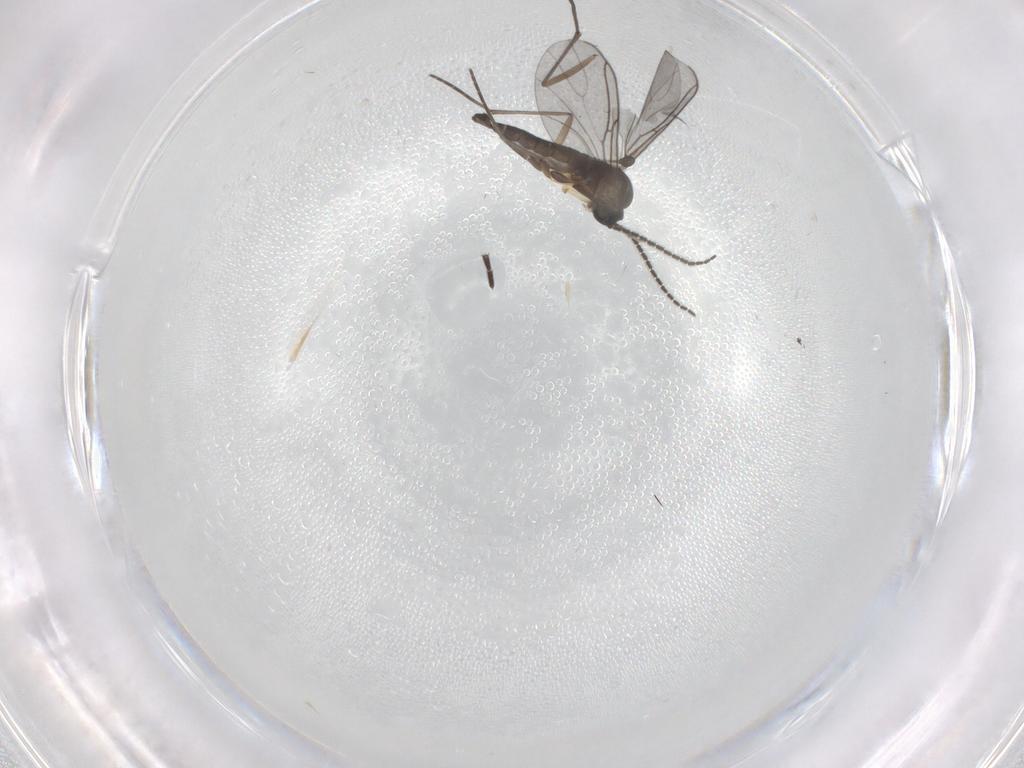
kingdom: Animalia
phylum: Arthropoda
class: Insecta
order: Diptera
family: Sciaridae
